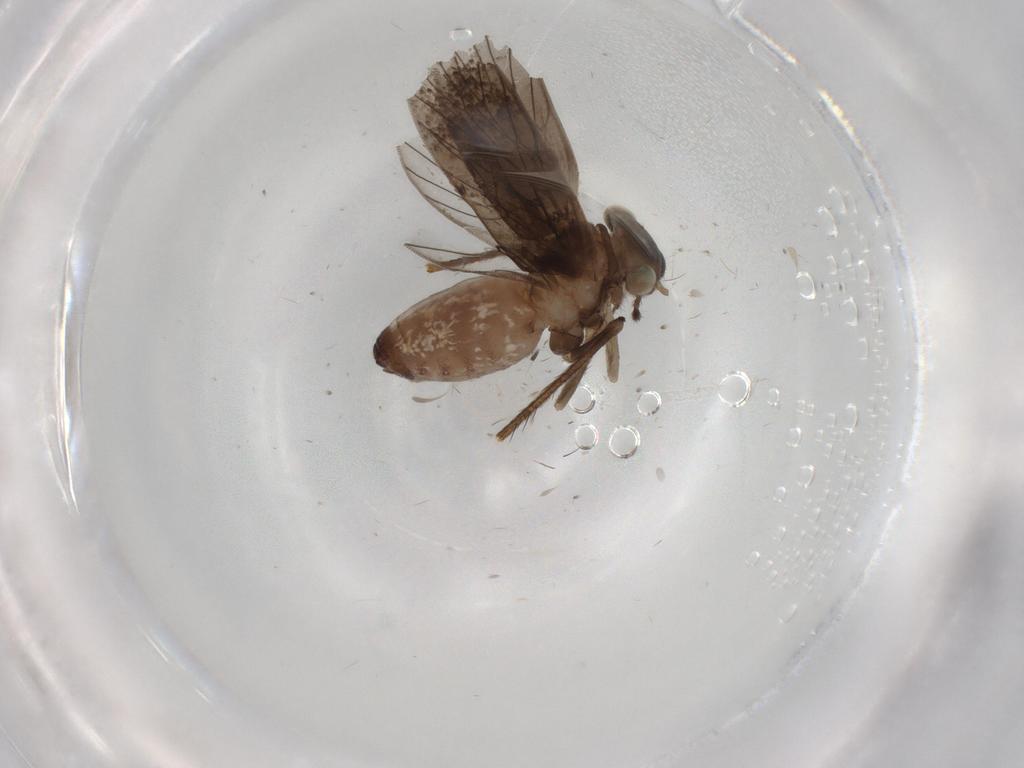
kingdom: Animalia
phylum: Arthropoda
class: Insecta
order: Psocodea
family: Lepidopsocidae
